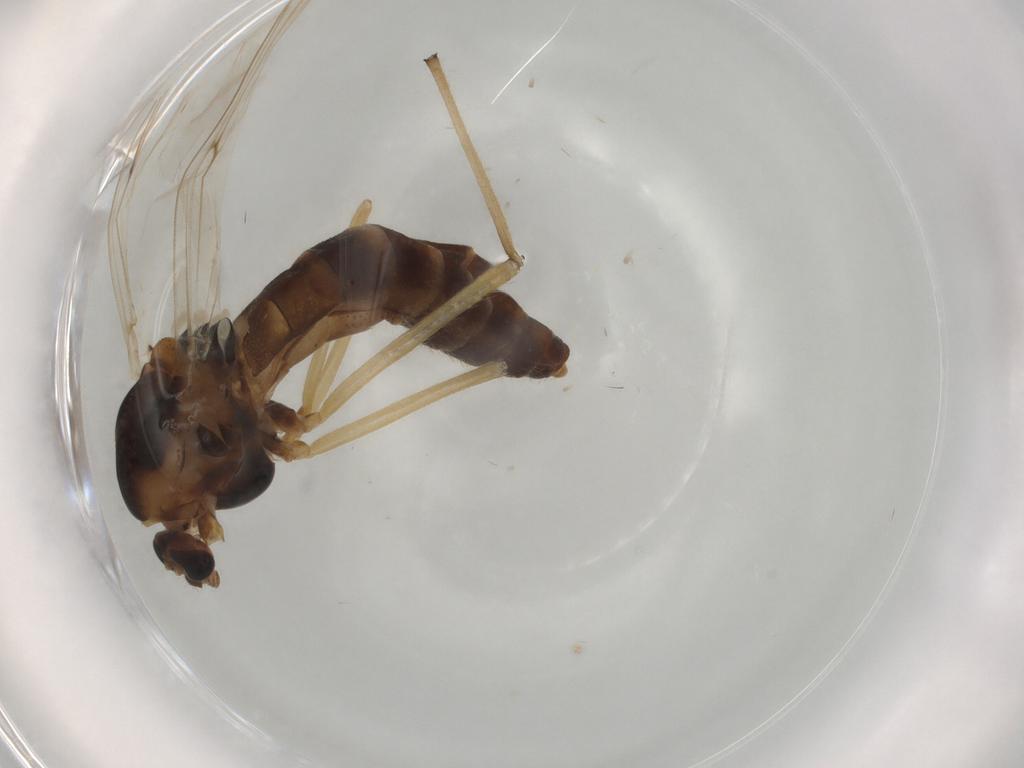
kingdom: Animalia
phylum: Arthropoda
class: Insecta
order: Diptera
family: Chironomidae
